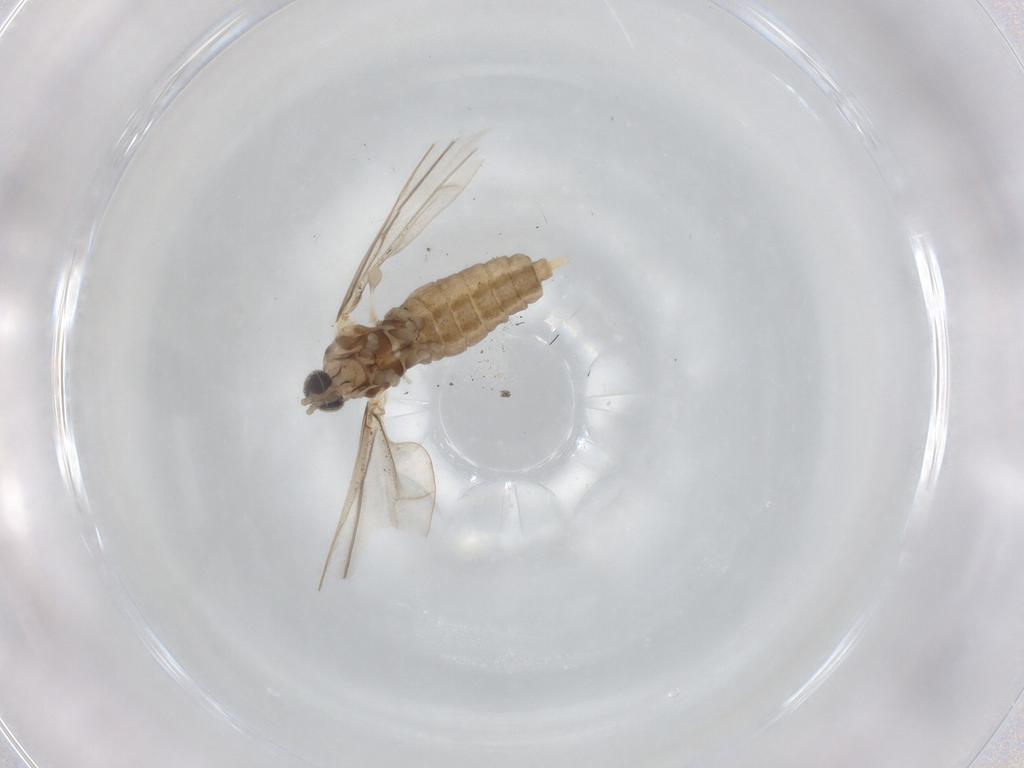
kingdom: Animalia
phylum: Arthropoda
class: Insecta
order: Diptera
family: Cecidomyiidae
